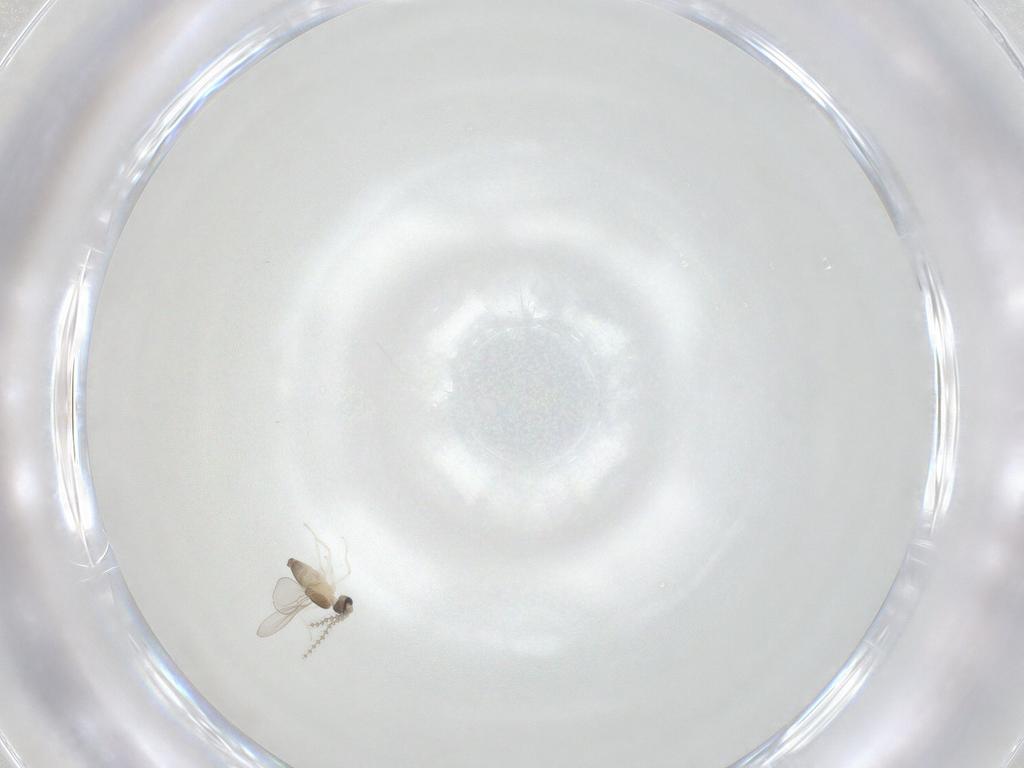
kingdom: Animalia
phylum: Arthropoda
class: Insecta
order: Diptera
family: Cecidomyiidae
